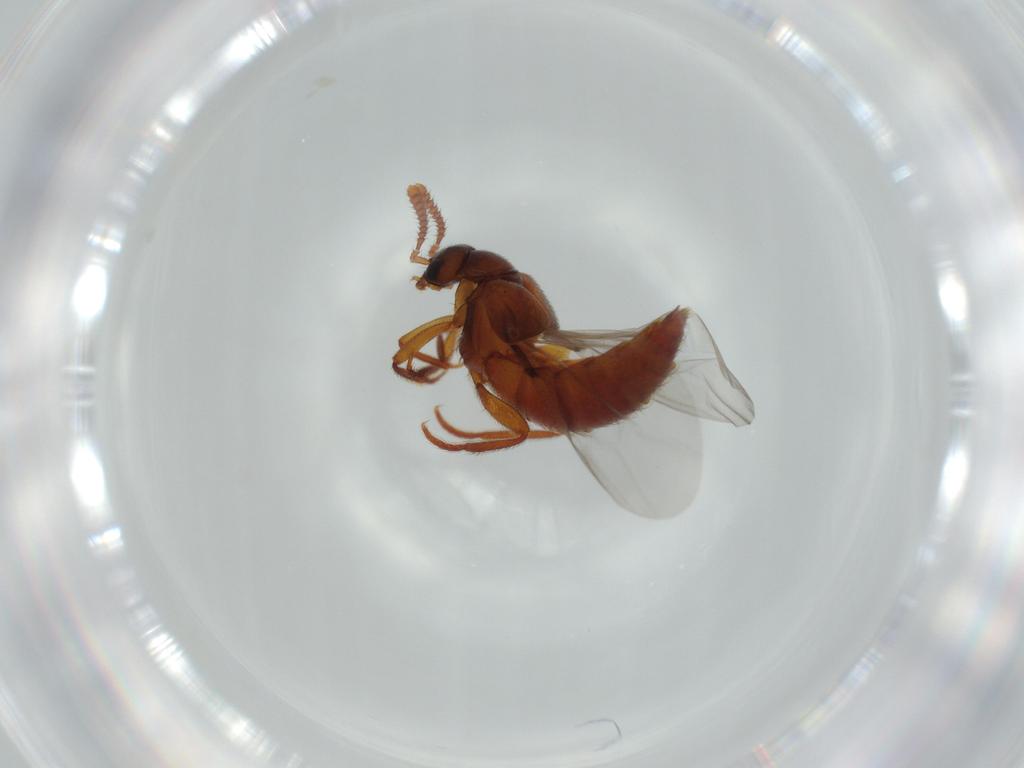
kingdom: Animalia
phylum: Arthropoda
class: Insecta
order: Coleoptera
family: Staphylinidae
